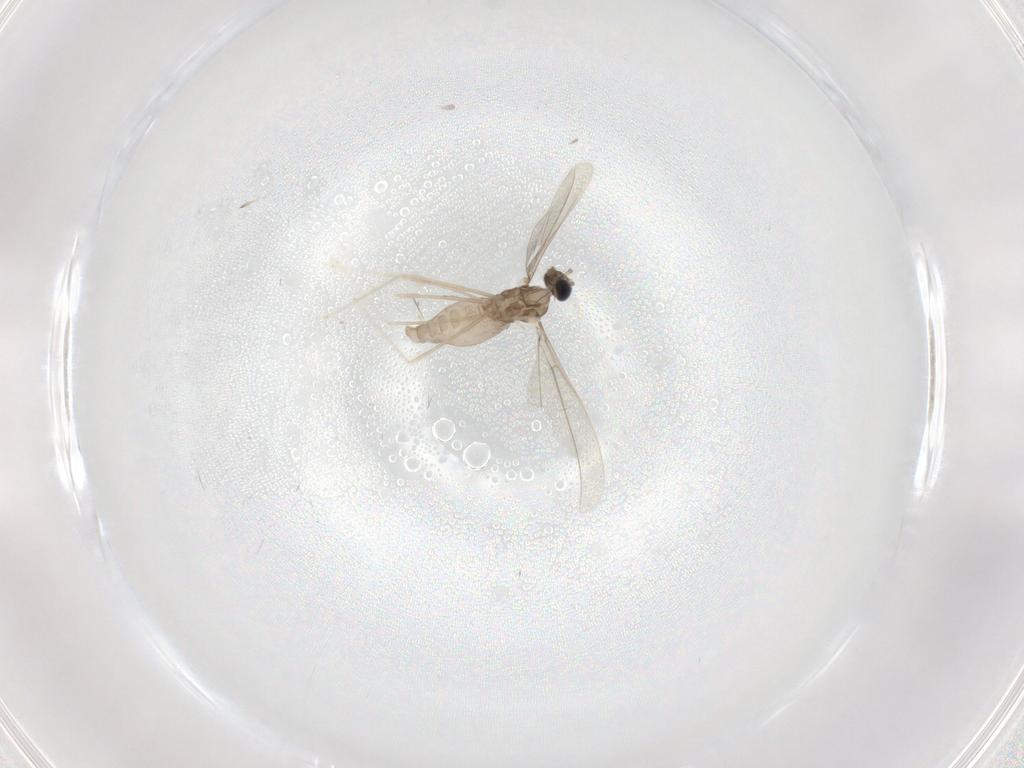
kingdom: Animalia
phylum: Arthropoda
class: Insecta
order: Diptera
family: Cecidomyiidae
